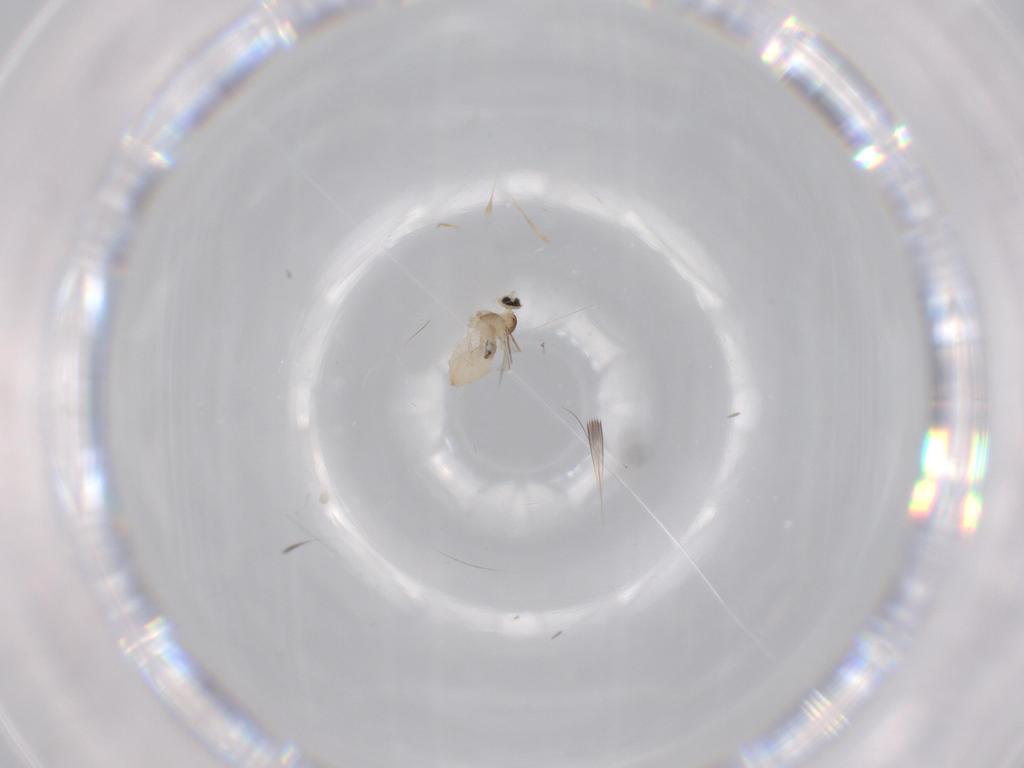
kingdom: Animalia
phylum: Arthropoda
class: Insecta
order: Diptera
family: Cecidomyiidae
